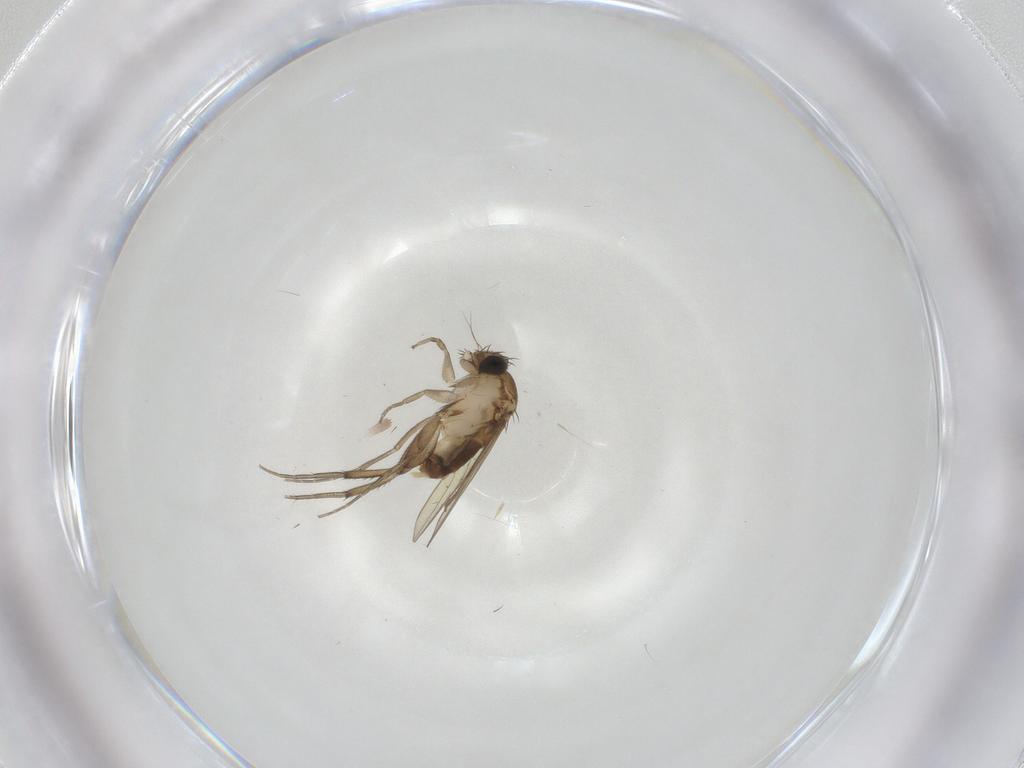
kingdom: Animalia
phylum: Arthropoda
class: Insecta
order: Diptera
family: Phoridae
